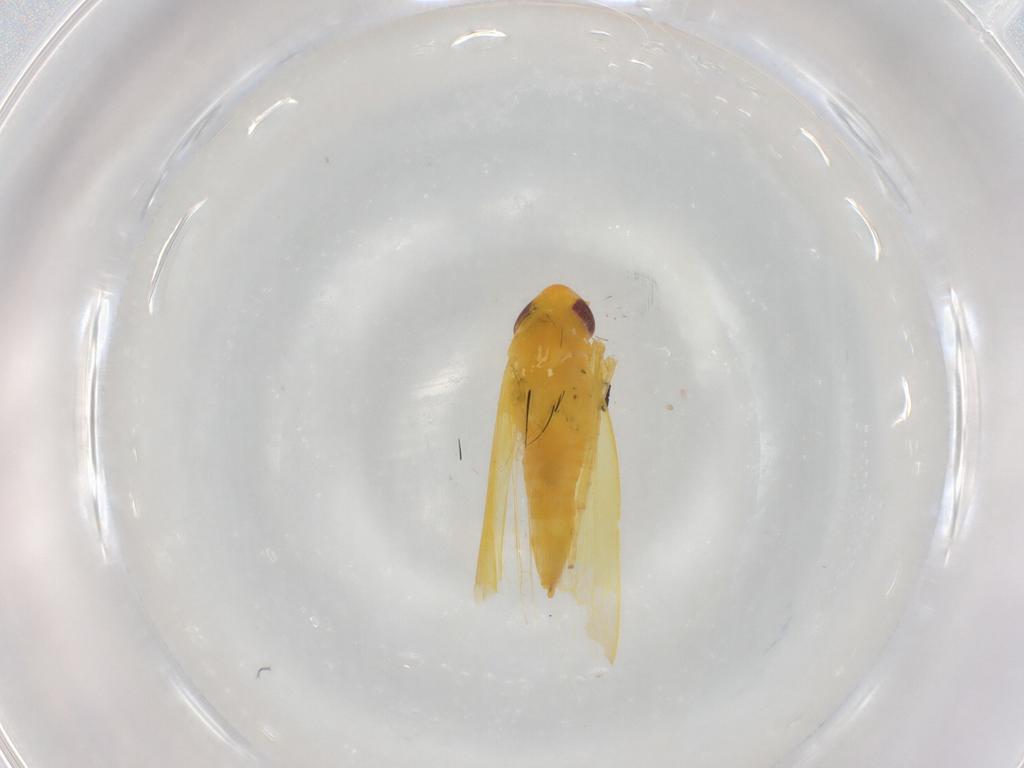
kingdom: Animalia
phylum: Arthropoda
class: Insecta
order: Hemiptera
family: Cicadellidae
